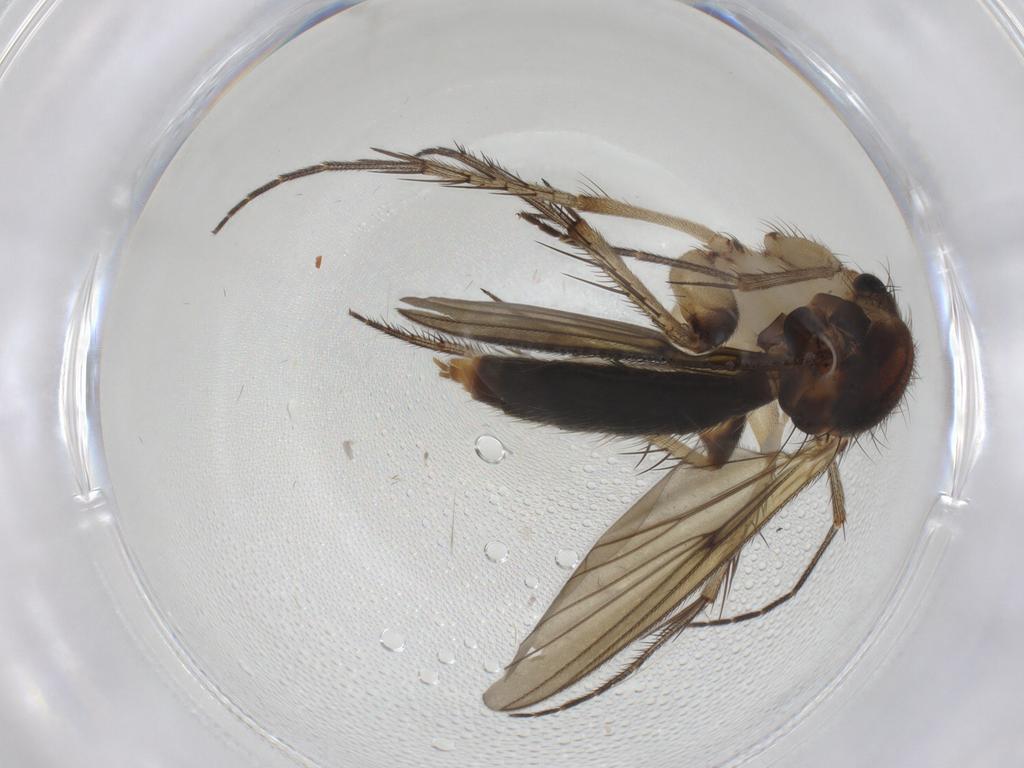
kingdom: Animalia
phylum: Arthropoda
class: Insecta
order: Diptera
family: Mycetophilidae
